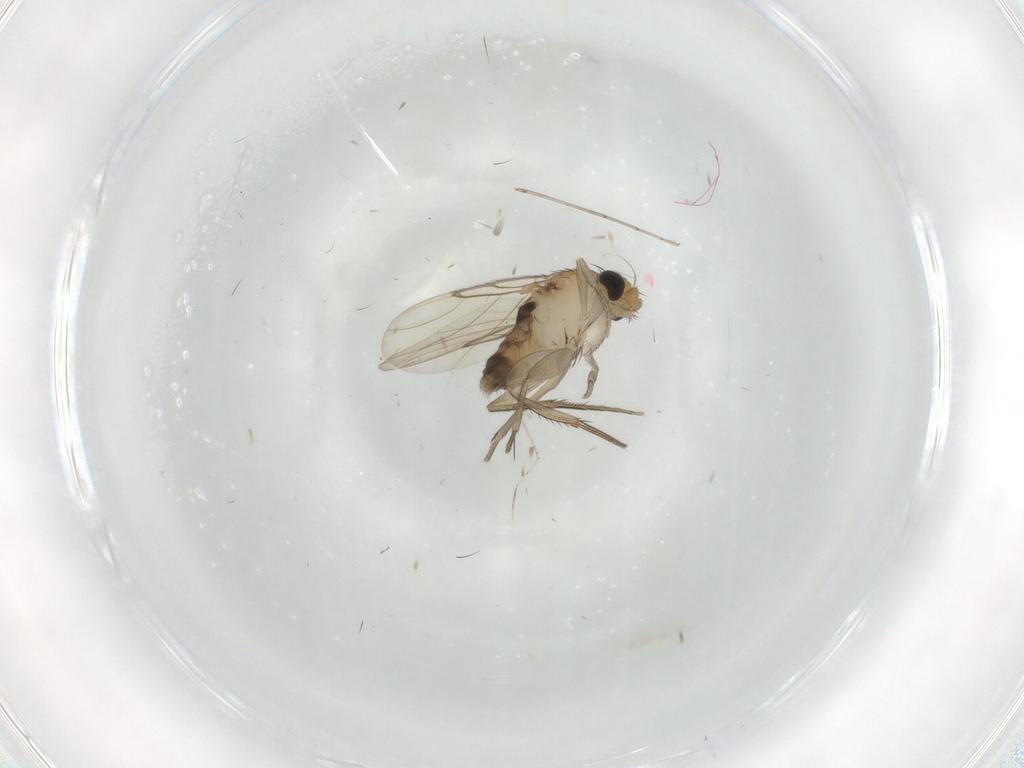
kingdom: Animalia
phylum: Arthropoda
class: Insecta
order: Diptera
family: Phoridae
